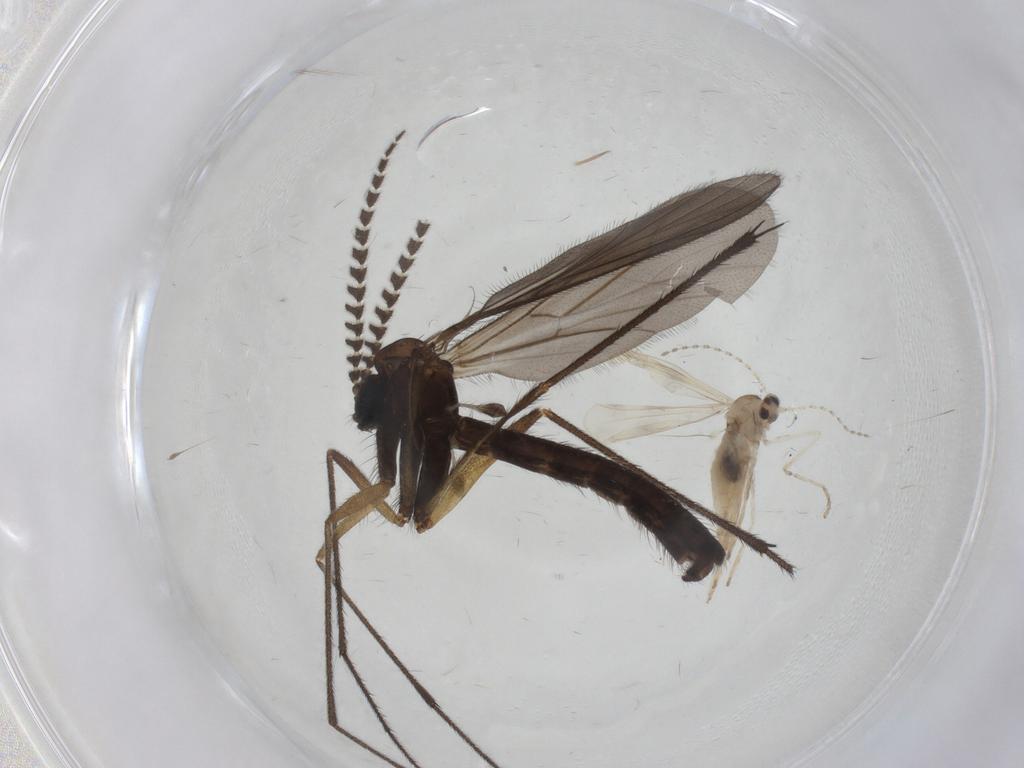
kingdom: Animalia
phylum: Arthropoda
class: Insecta
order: Diptera
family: Ditomyiidae
